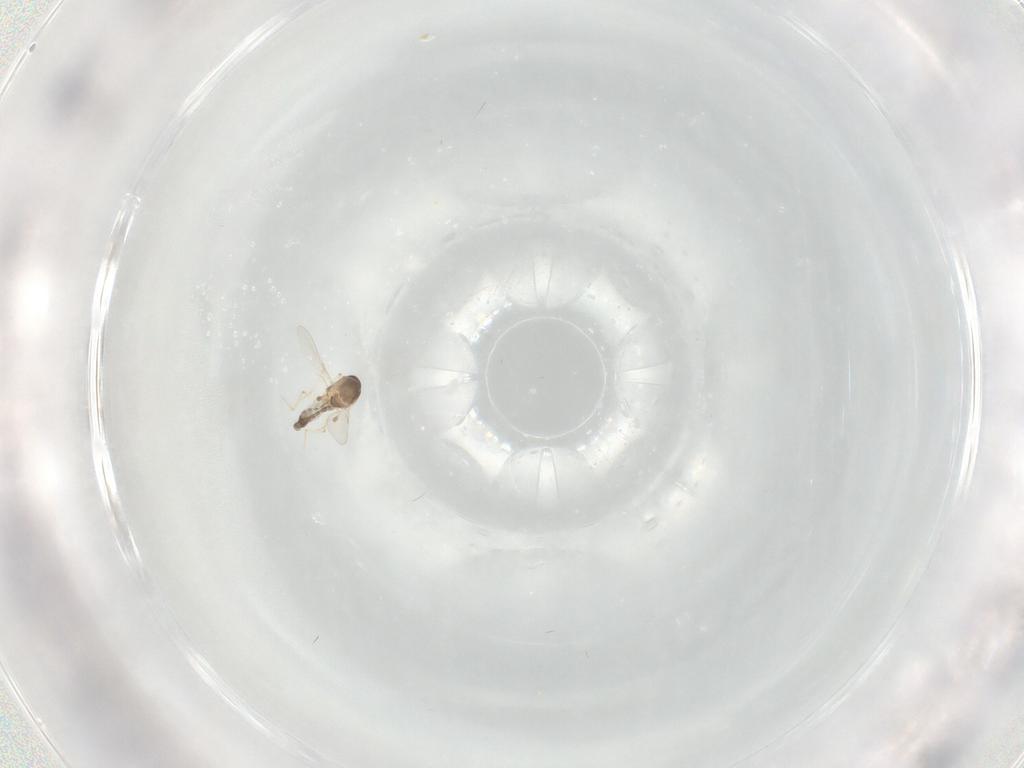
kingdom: Animalia
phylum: Arthropoda
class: Insecta
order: Diptera
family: Ceratopogonidae
